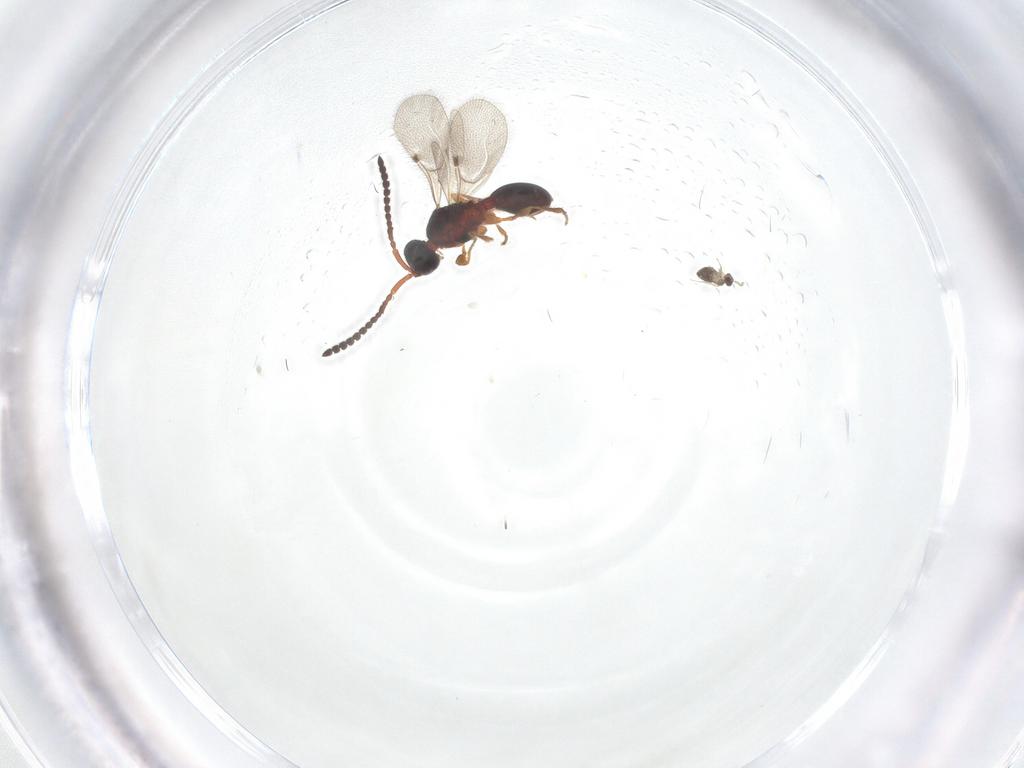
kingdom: Animalia
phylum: Arthropoda
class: Insecta
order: Hymenoptera
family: Diapriidae
